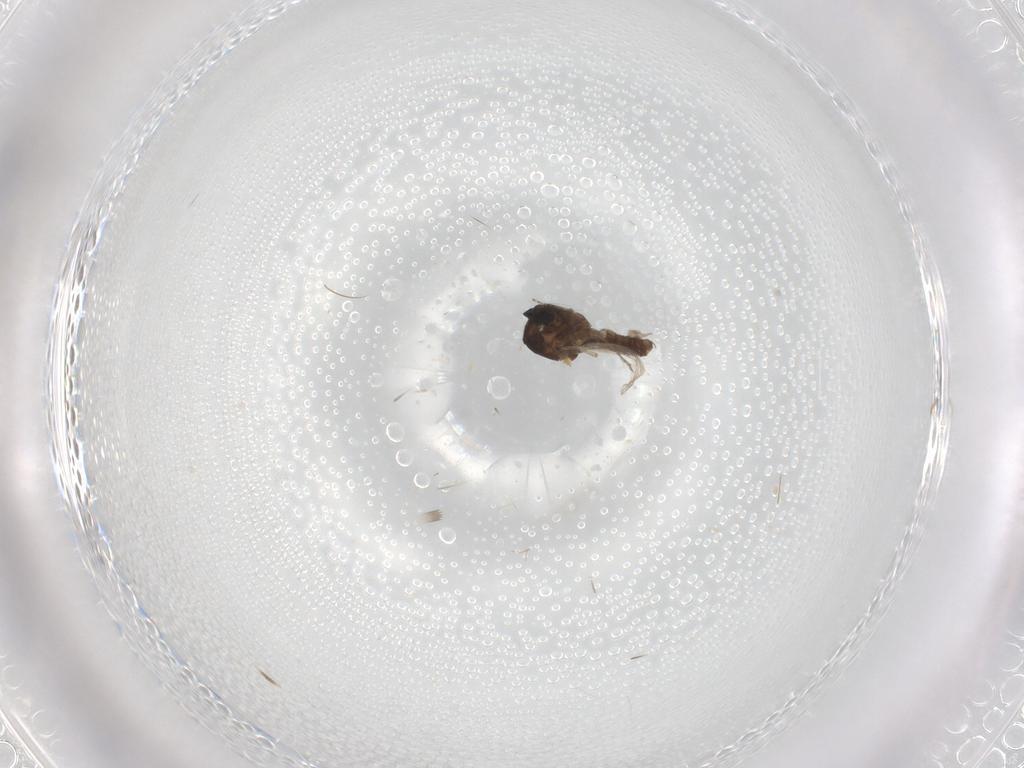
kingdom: Animalia
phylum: Arthropoda
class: Insecta
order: Diptera
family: Ceratopogonidae
